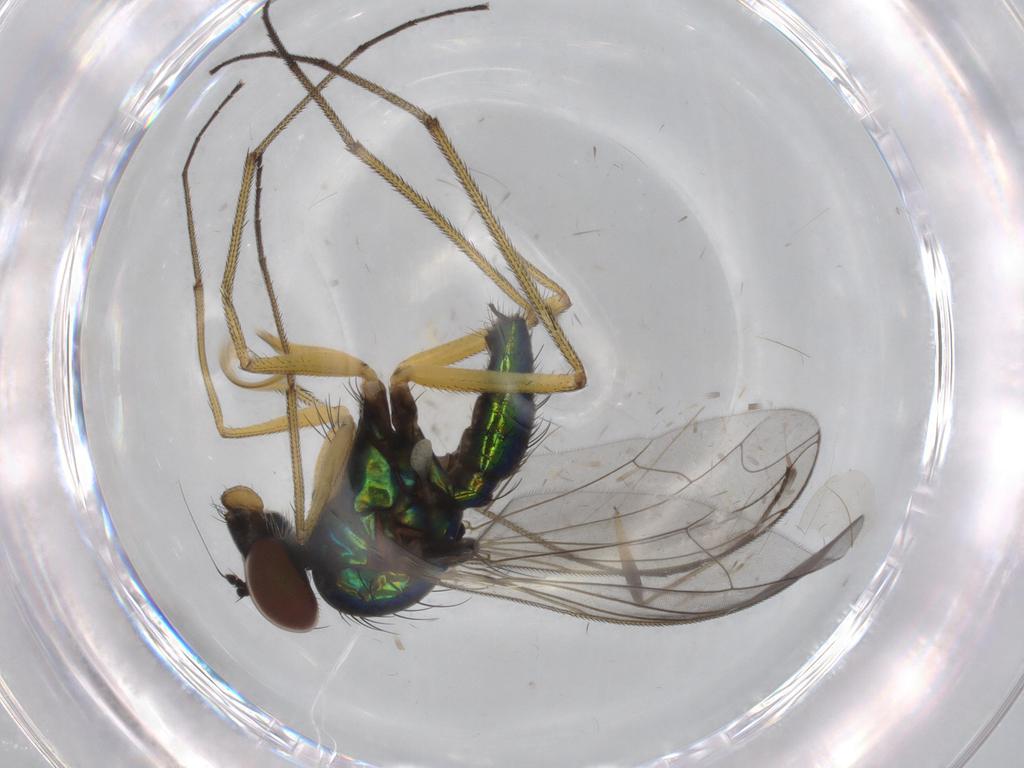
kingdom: Animalia
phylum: Arthropoda
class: Insecta
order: Diptera
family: Dolichopodidae
